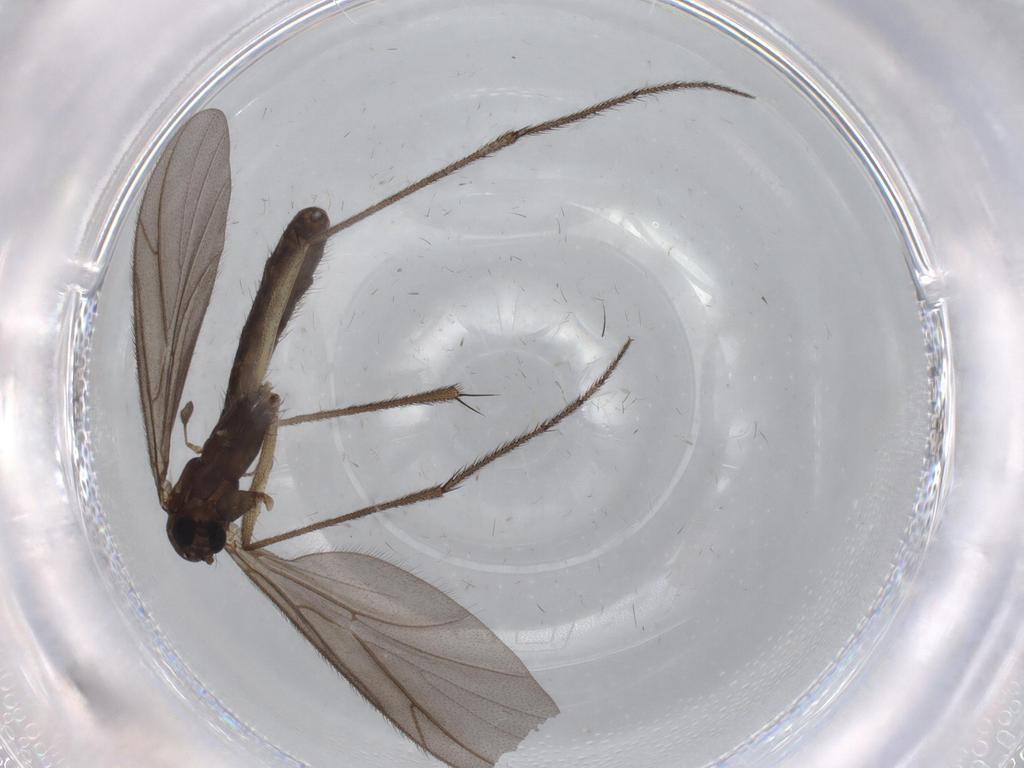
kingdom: Animalia
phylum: Arthropoda
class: Insecta
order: Diptera
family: Ditomyiidae
